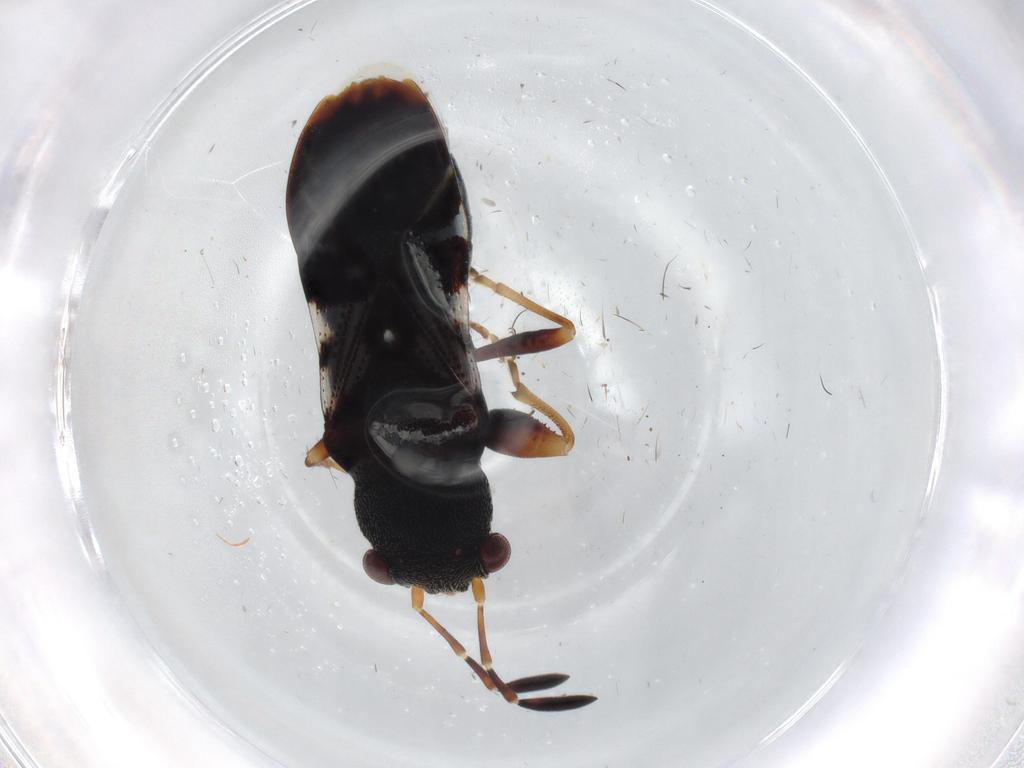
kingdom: Animalia
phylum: Arthropoda
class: Insecta
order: Hemiptera
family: Rhyparochromidae
